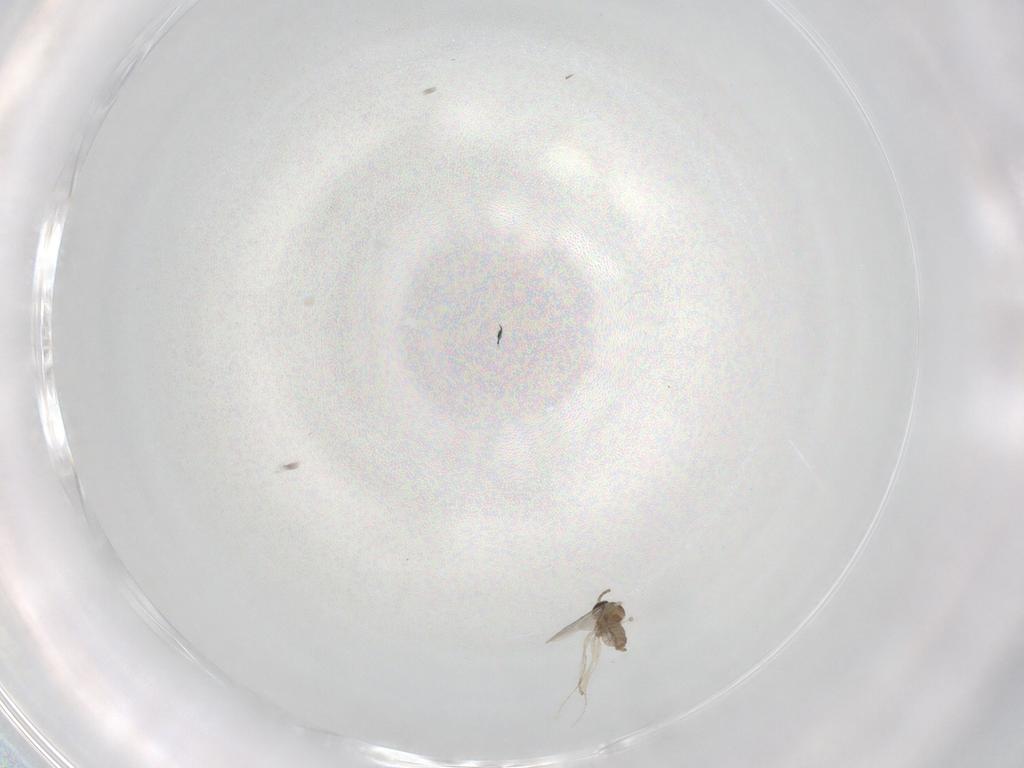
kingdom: Animalia
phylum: Arthropoda
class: Insecta
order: Diptera
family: Cecidomyiidae
